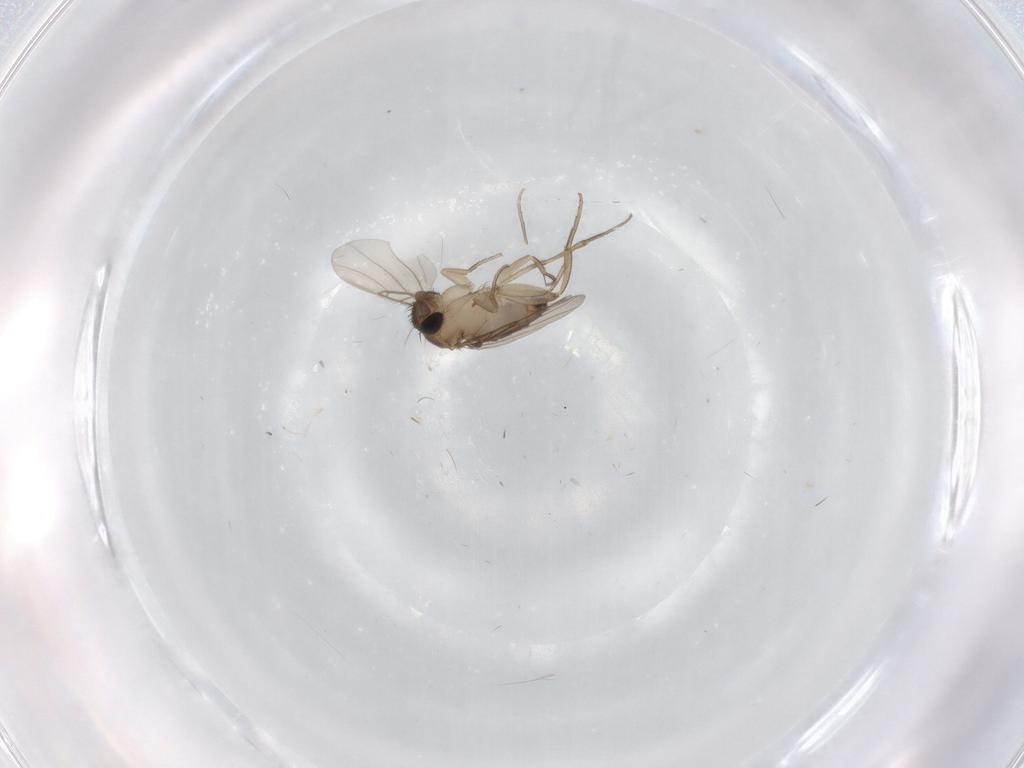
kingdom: Animalia
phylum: Arthropoda
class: Insecta
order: Diptera
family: Phoridae
